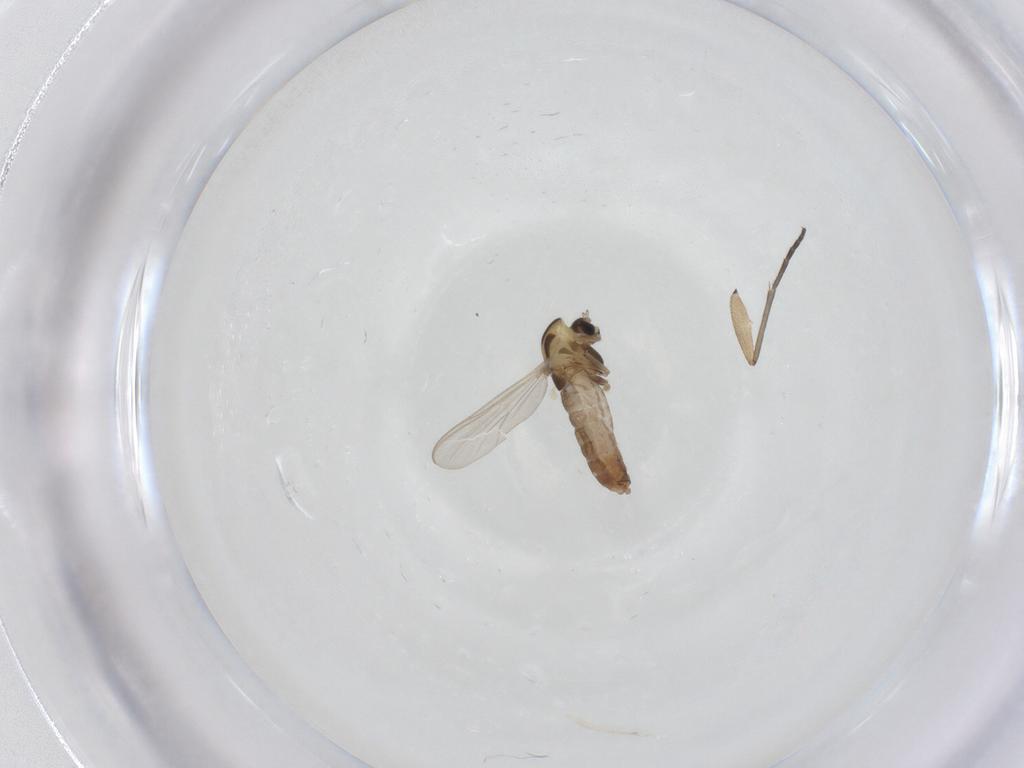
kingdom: Animalia
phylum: Arthropoda
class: Insecta
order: Diptera
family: Chironomidae
